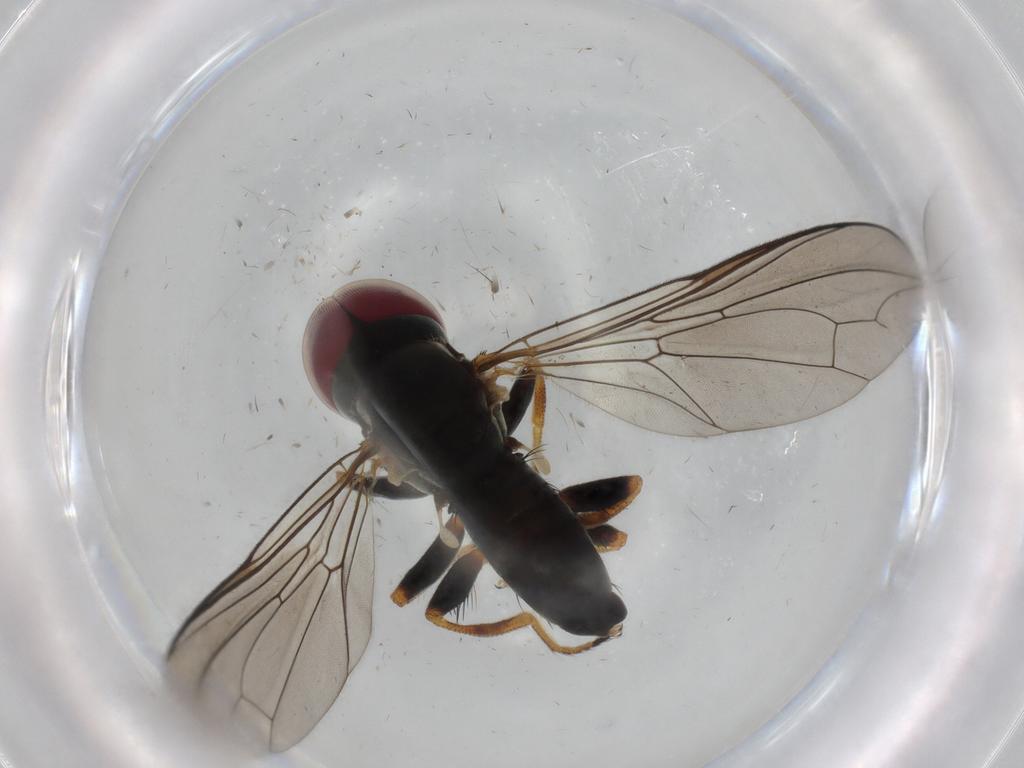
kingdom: Animalia
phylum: Arthropoda
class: Insecta
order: Diptera
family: Pipunculidae
